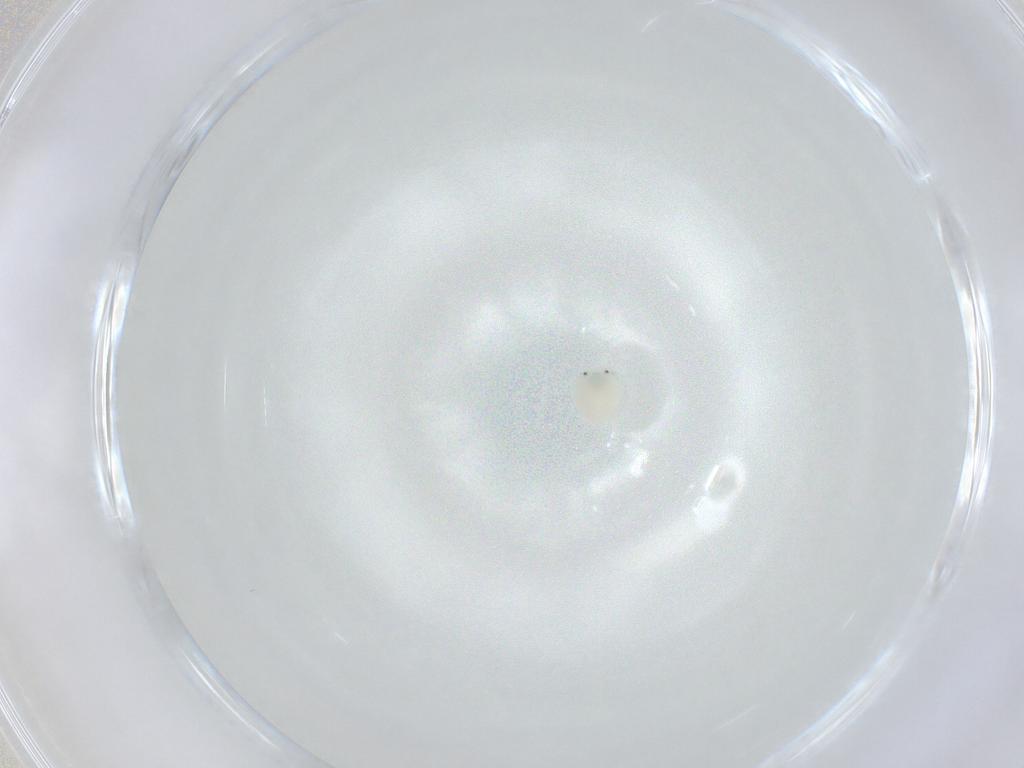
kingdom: Animalia
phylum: Arthropoda
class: Arachnida
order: Trombidiformes
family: Arrenuridae
